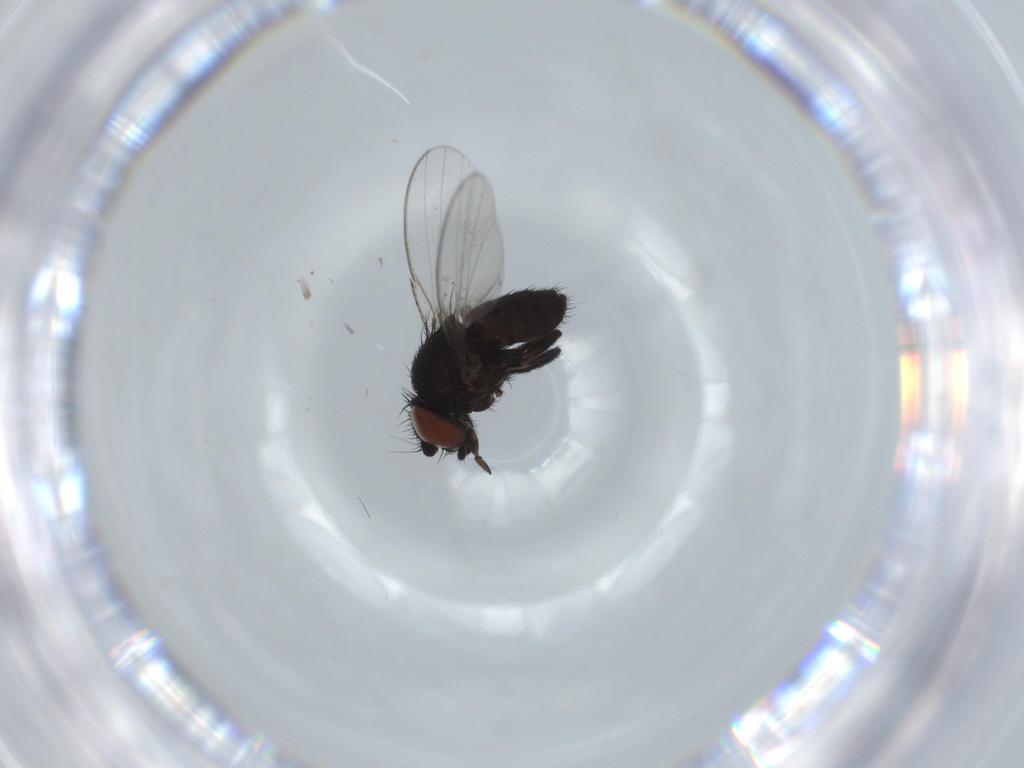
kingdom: Animalia
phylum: Arthropoda
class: Insecta
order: Diptera
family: Milichiidae
